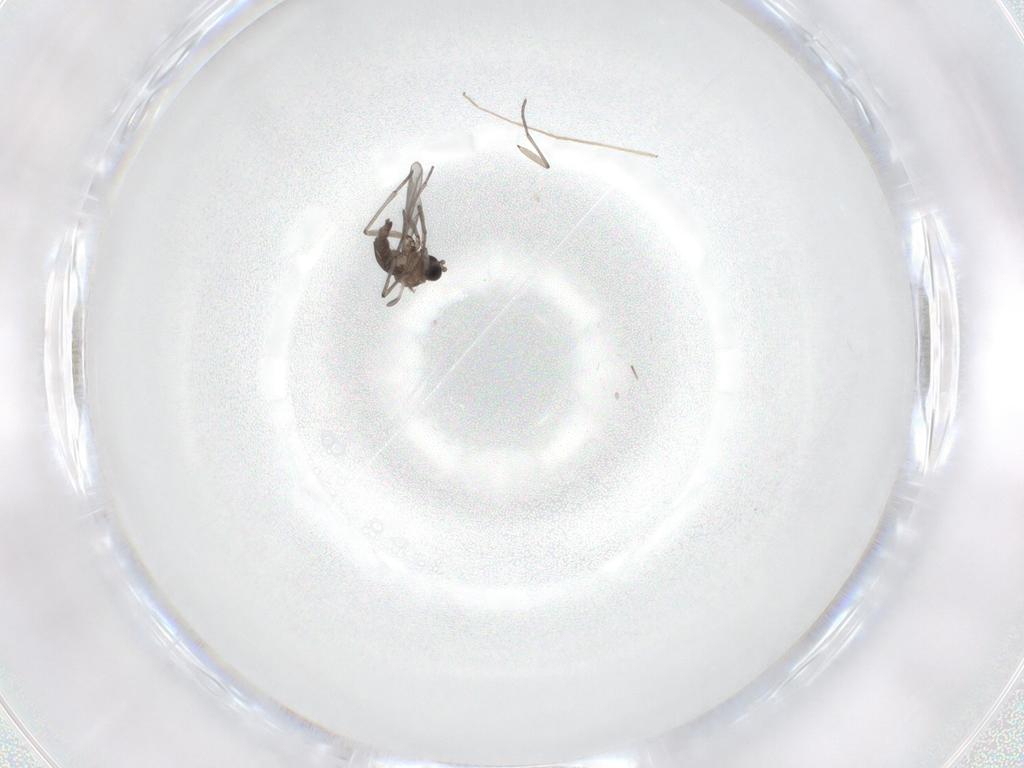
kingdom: Animalia
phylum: Arthropoda
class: Insecta
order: Diptera
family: Chironomidae
